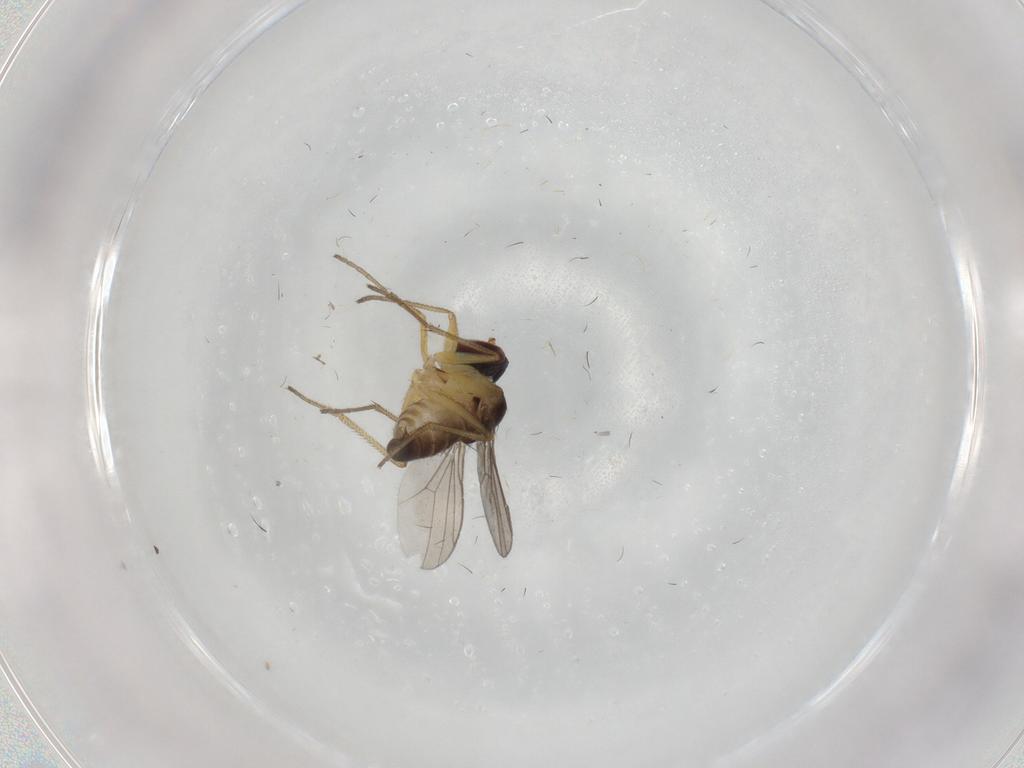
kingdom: Animalia
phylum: Arthropoda
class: Insecta
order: Diptera
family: Dolichopodidae
